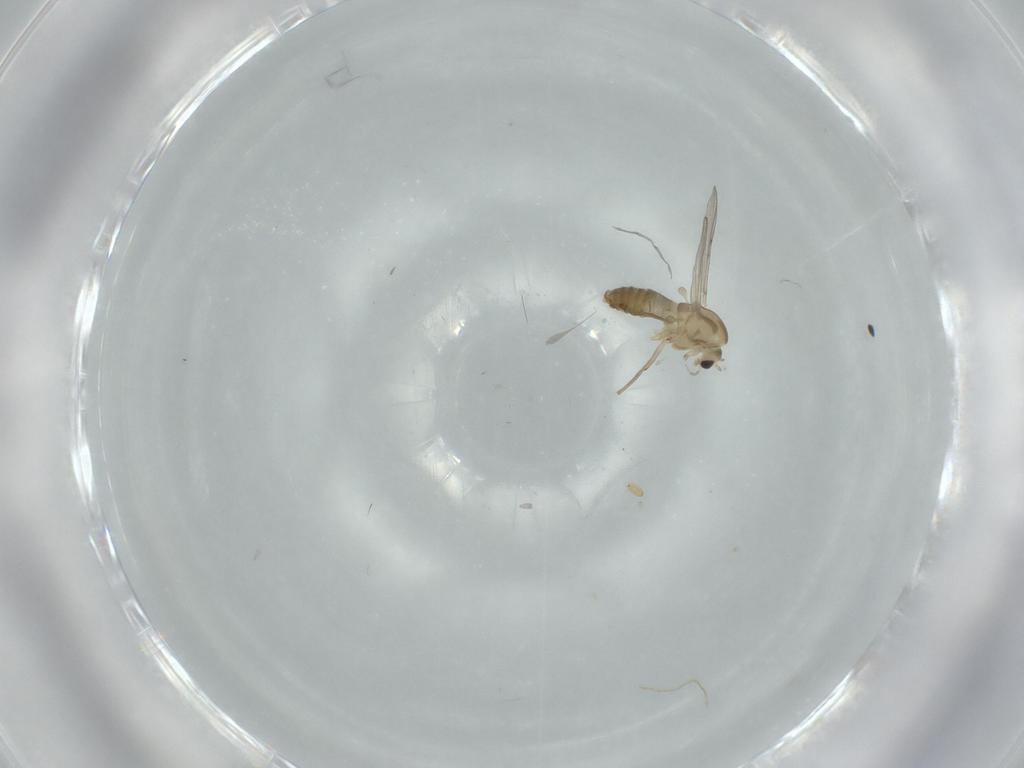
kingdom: Animalia
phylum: Arthropoda
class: Insecta
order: Diptera
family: Chironomidae
